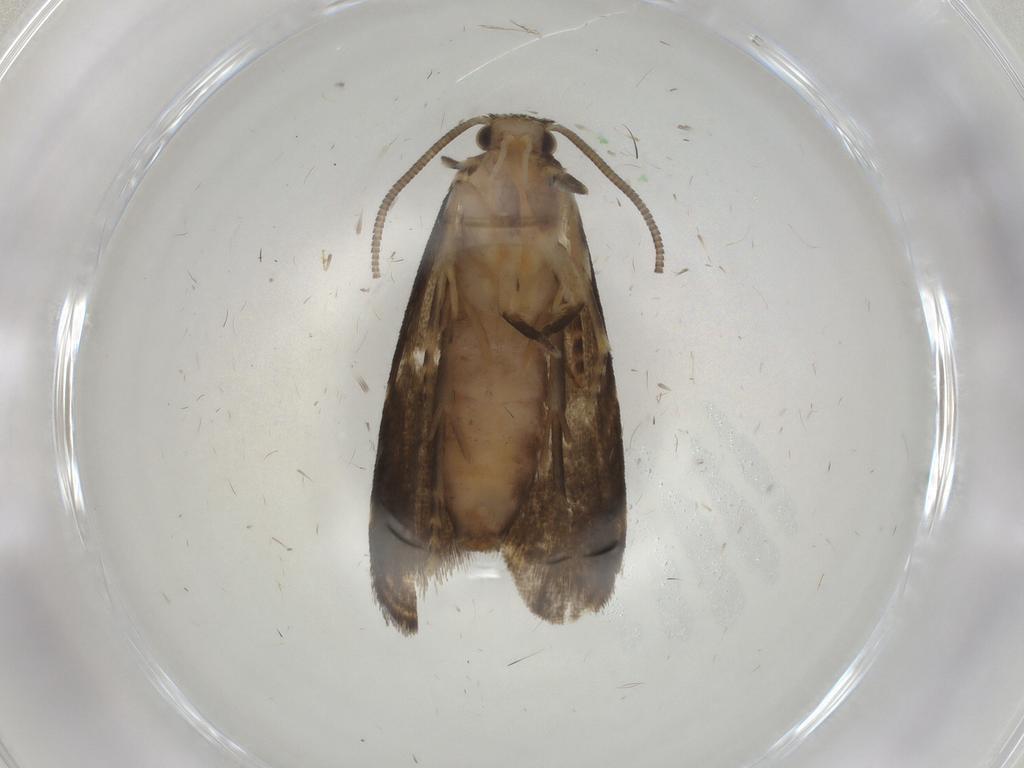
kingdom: Animalia
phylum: Arthropoda
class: Insecta
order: Lepidoptera
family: Dryadaulidae
